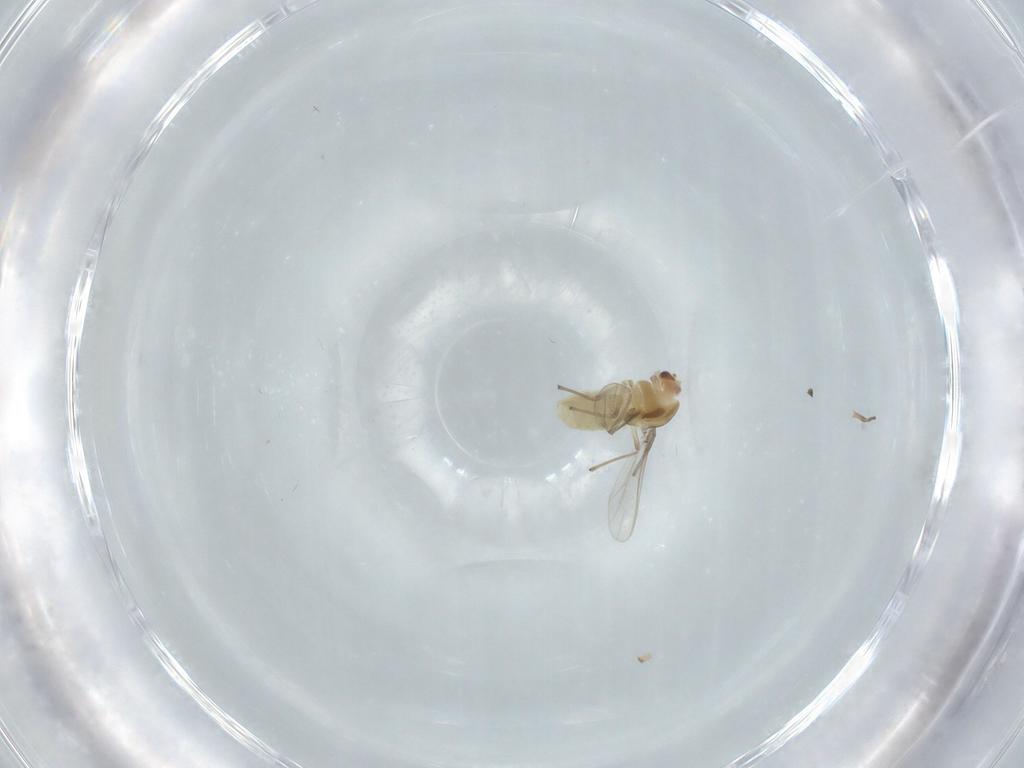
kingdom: Animalia
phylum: Arthropoda
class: Insecta
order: Diptera
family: Chironomidae
